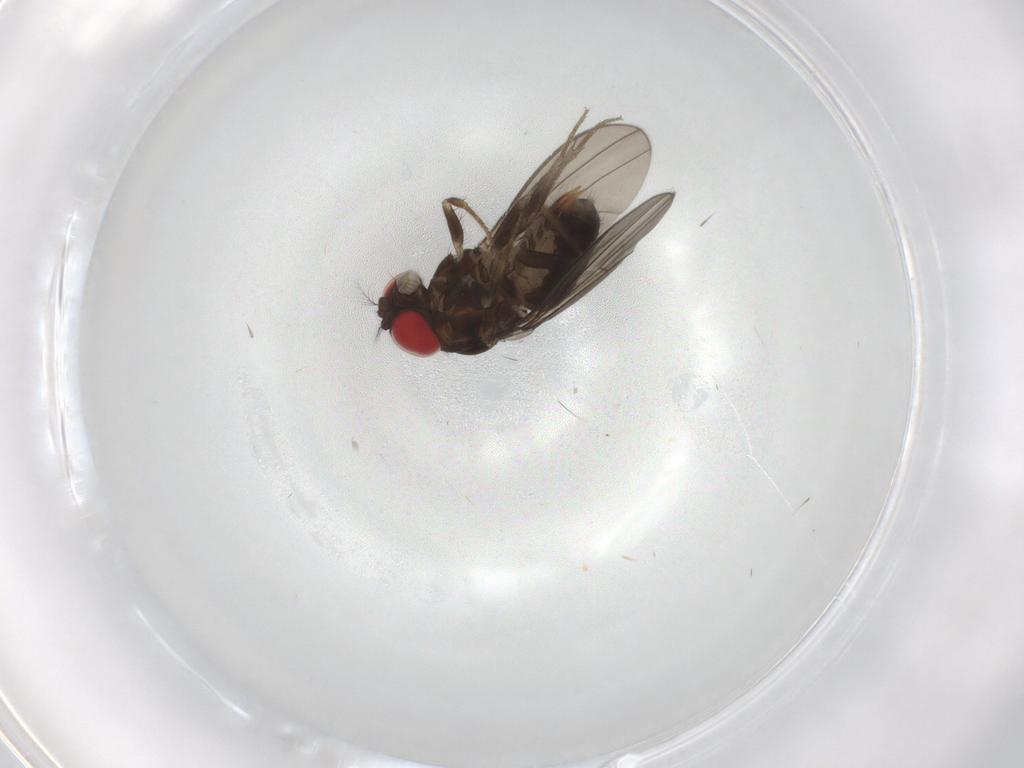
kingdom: Animalia
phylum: Arthropoda
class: Insecta
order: Diptera
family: Drosophilidae
